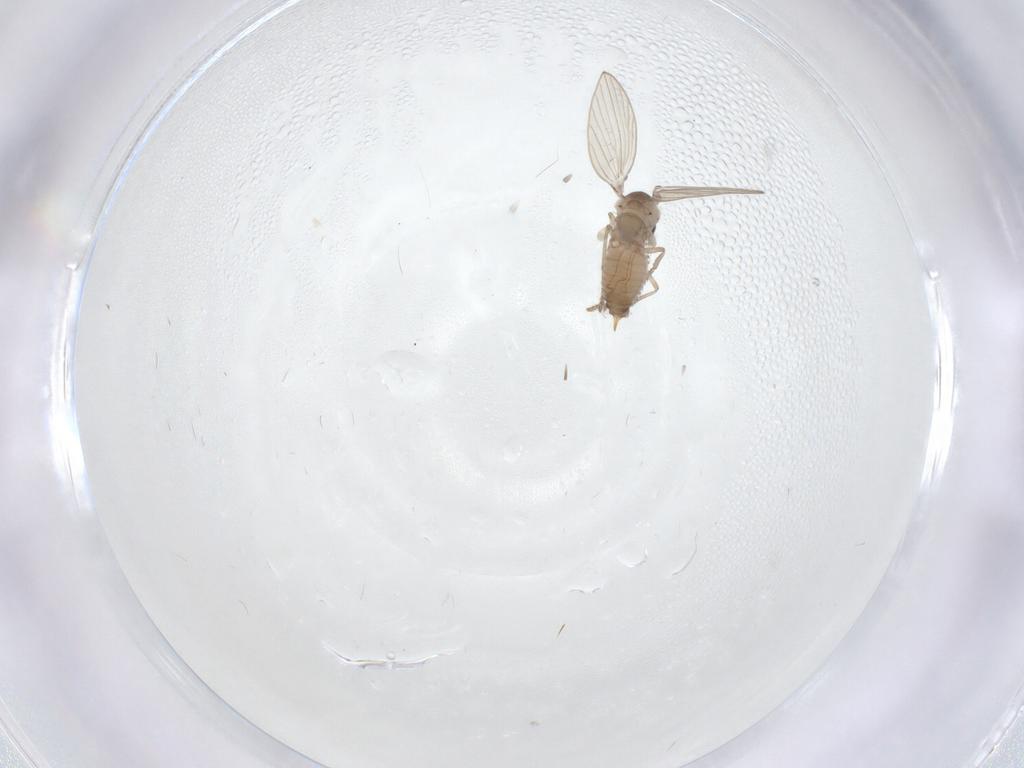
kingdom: Animalia
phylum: Arthropoda
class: Insecta
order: Diptera
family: Psychodidae
